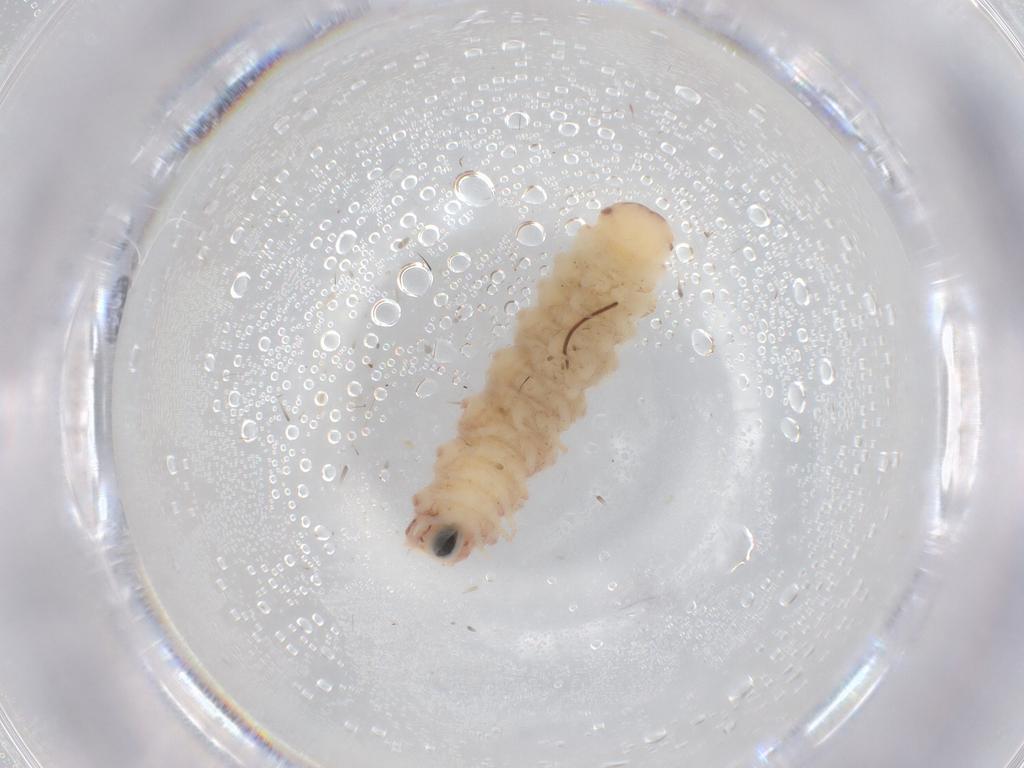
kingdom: Animalia
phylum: Arthropoda
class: Diplopoda
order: Polyxenida
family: Polyxenidae
